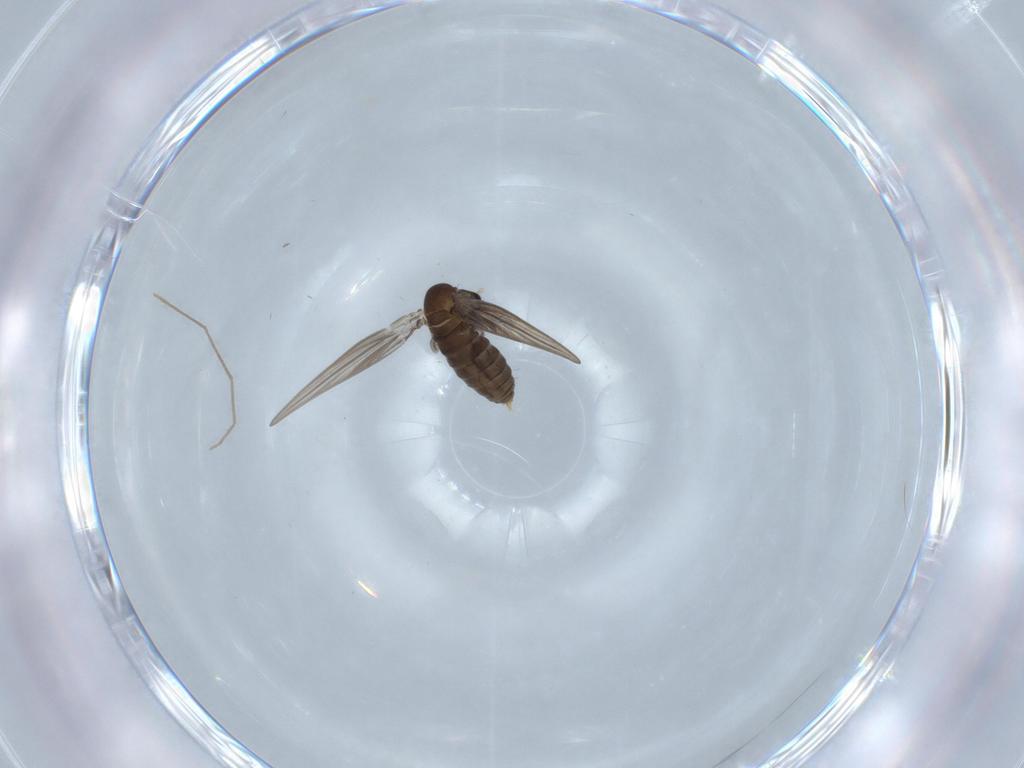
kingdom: Animalia
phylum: Arthropoda
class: Insecta
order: Diptera
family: Psychodidae
